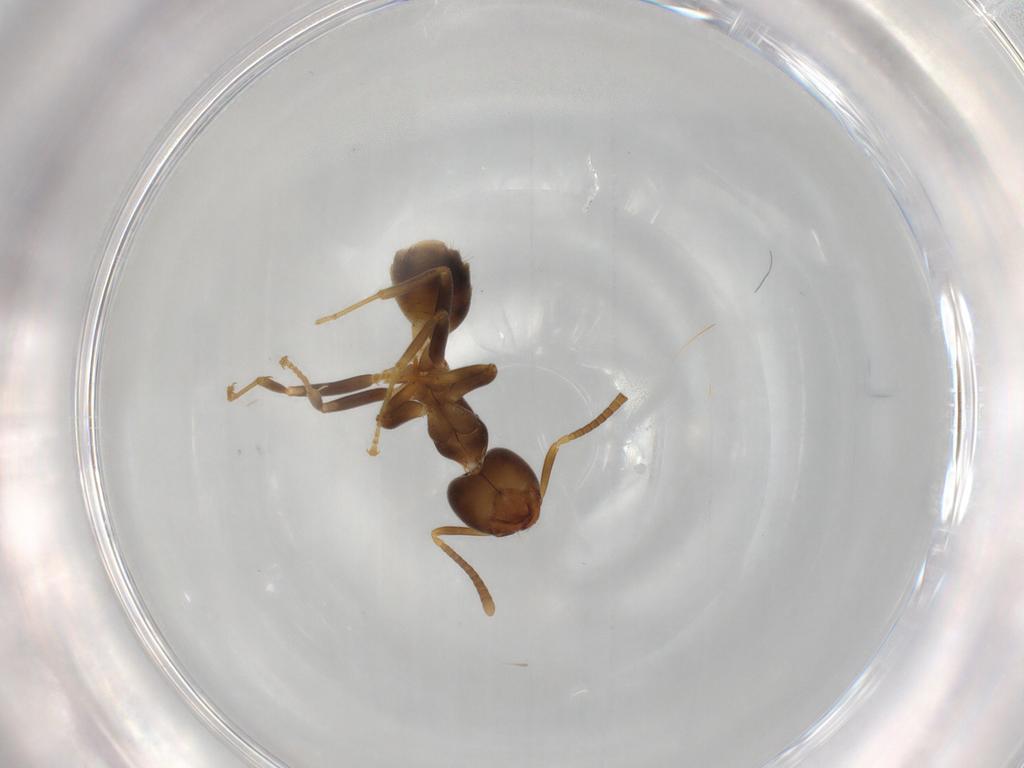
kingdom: Animalia
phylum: Arthropoda
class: Insecta
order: Hymenoptera
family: Formicidae
